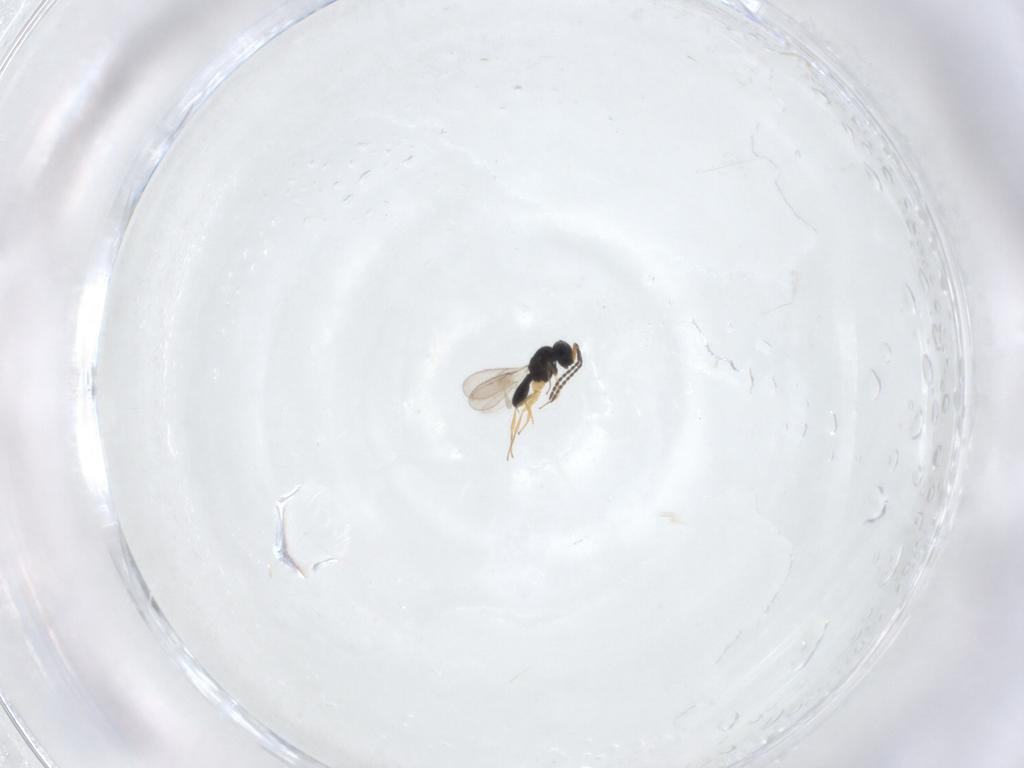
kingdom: Animalia
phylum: Arthropoda
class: Insecta
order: Hymenoptera
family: Scelionidae
